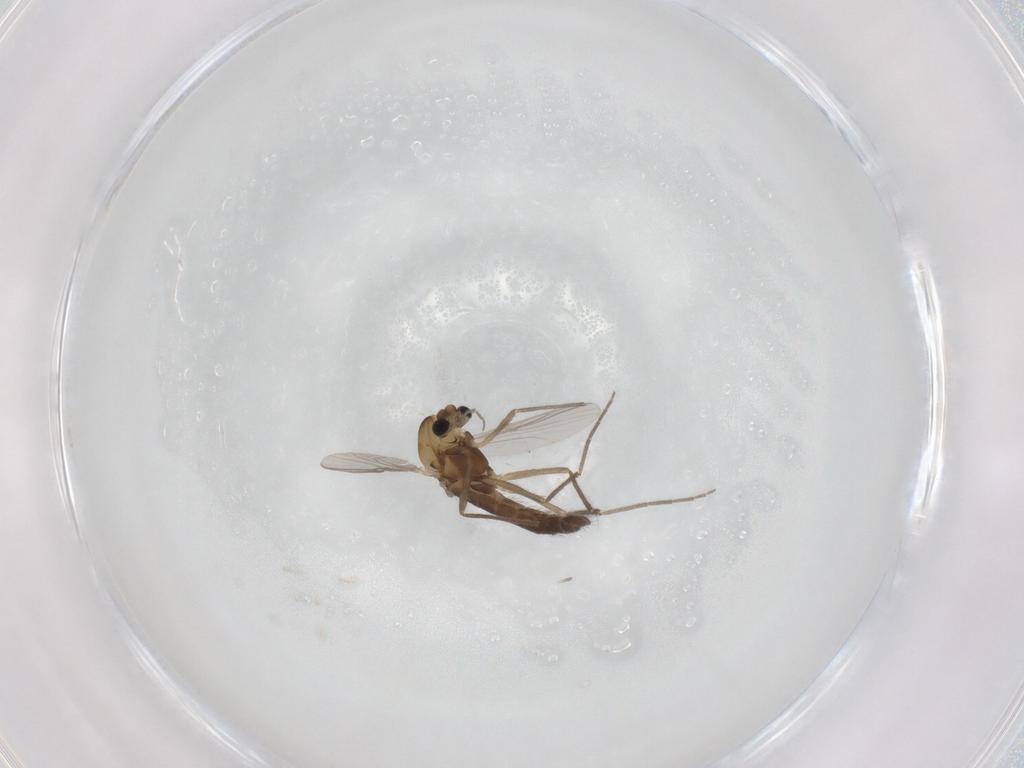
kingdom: Animalia
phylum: Arthropoda
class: Insecta
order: Diptera
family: Chironomidae
